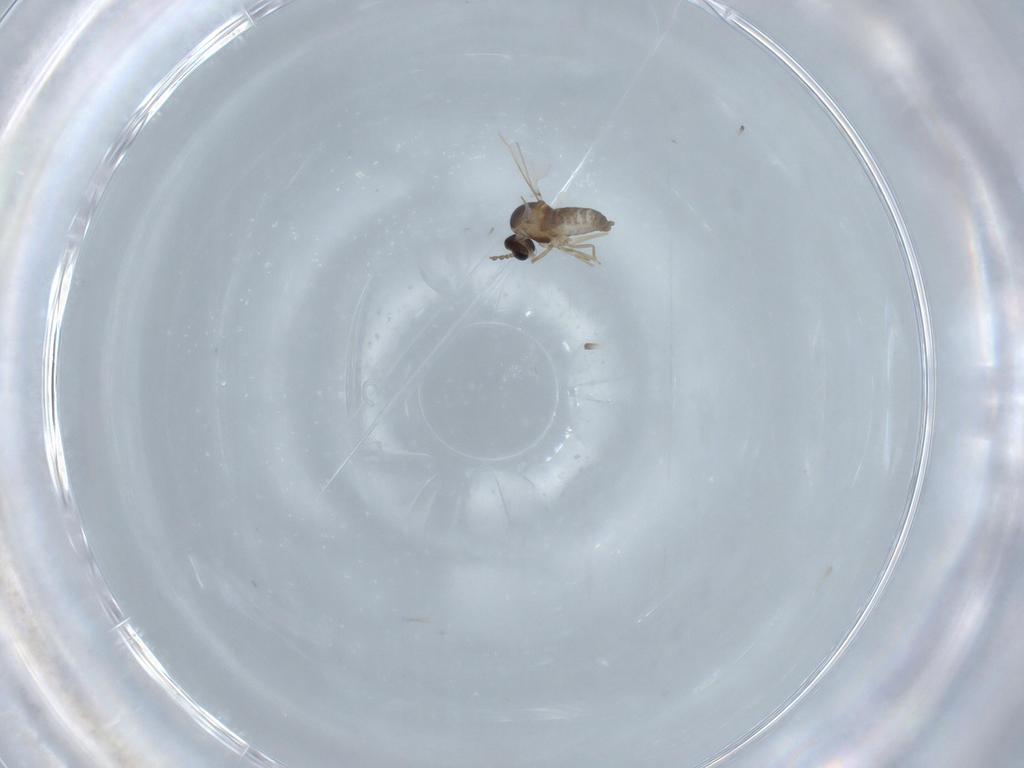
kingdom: Animalia
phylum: Arthropoda
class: Insecta
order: Diptera
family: Cecidomyiidae
